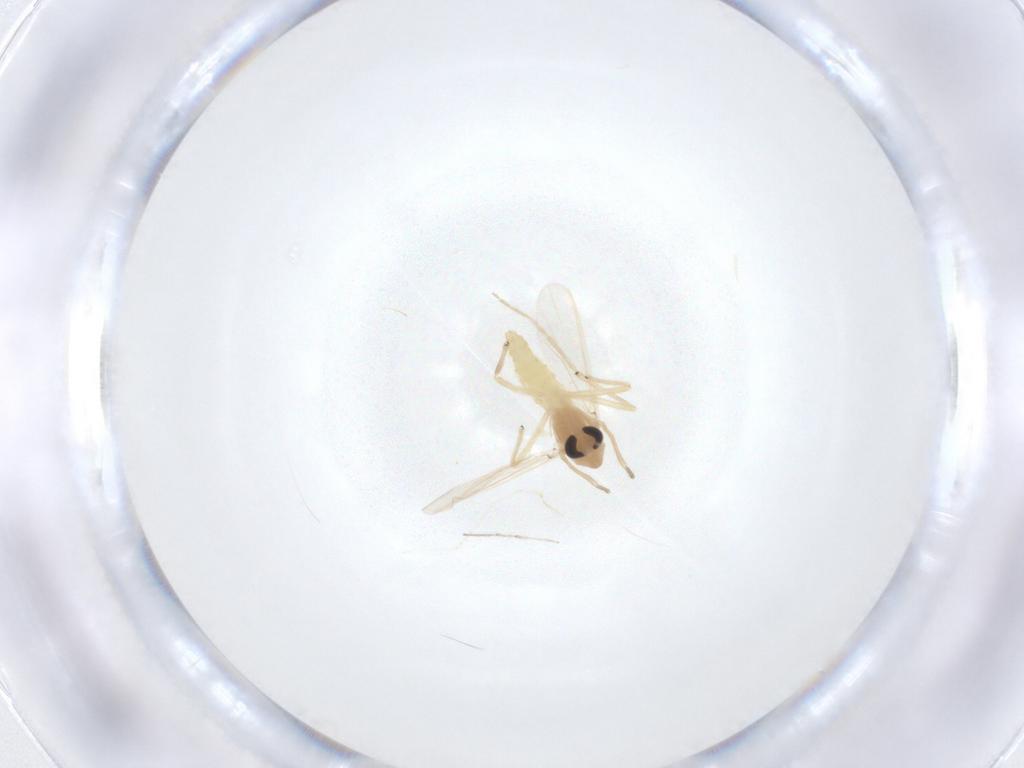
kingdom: Animalia
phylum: Arthropoda
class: Insecta
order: Diptera
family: Chironomidae
